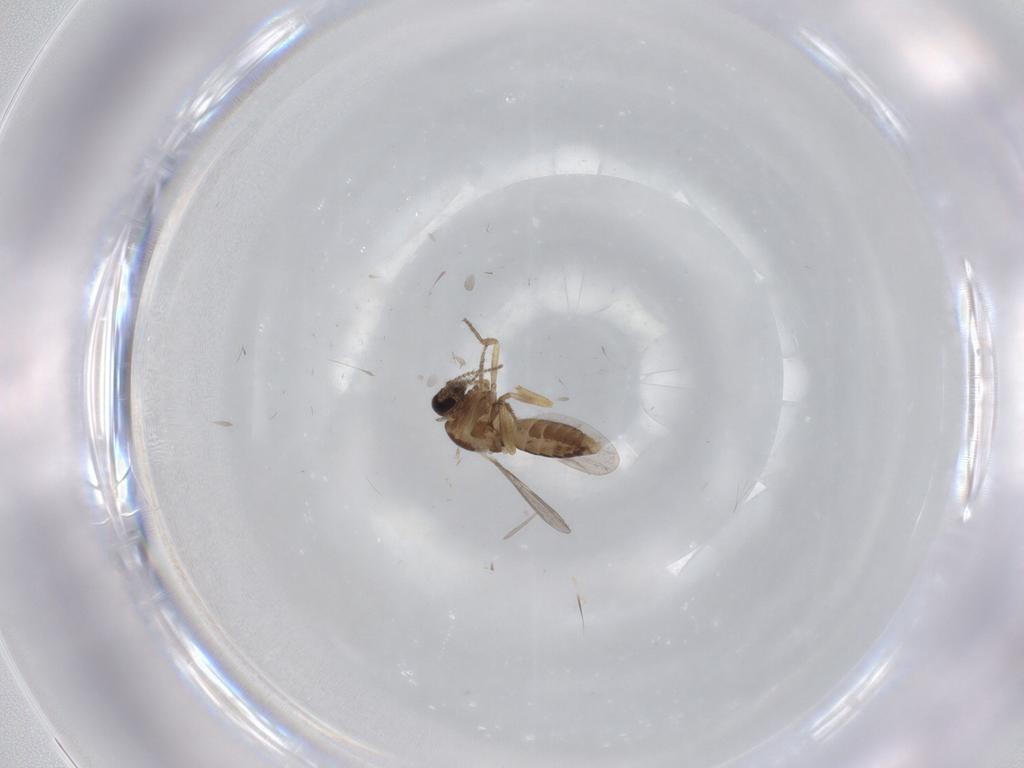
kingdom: Animalia
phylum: Arthropoda
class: Insecta
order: Diptera
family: Ceratopogonidae
